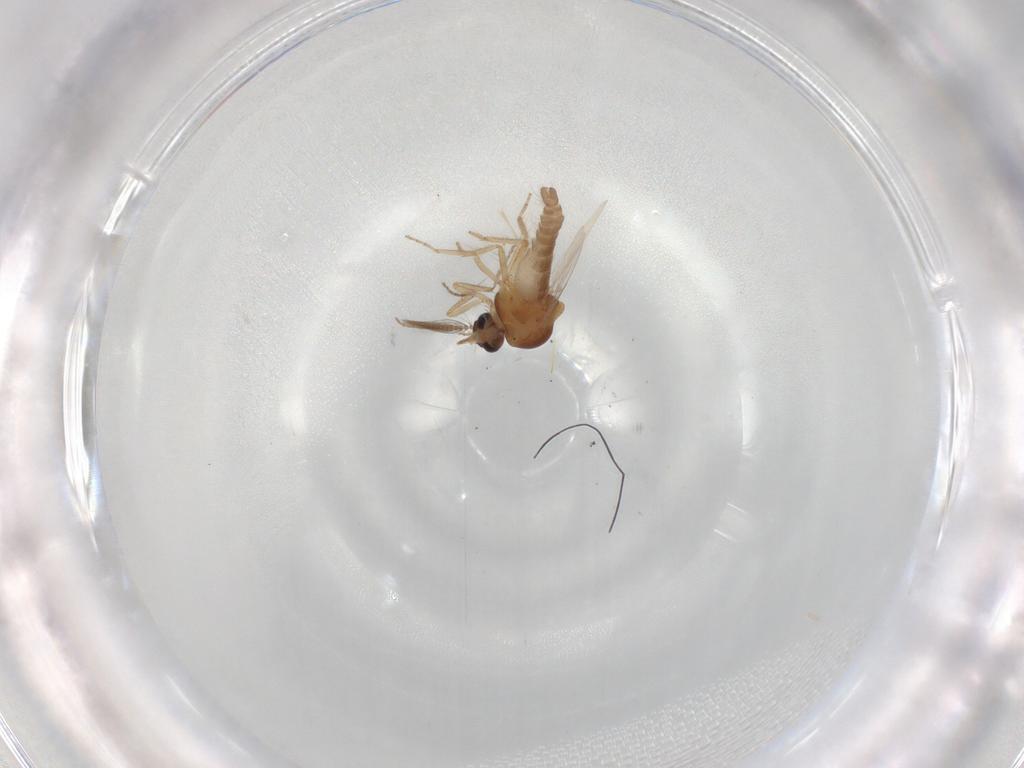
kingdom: Animalia
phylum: Arthropoda
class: Insecta
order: Diptera
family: Ceratopogonidae
